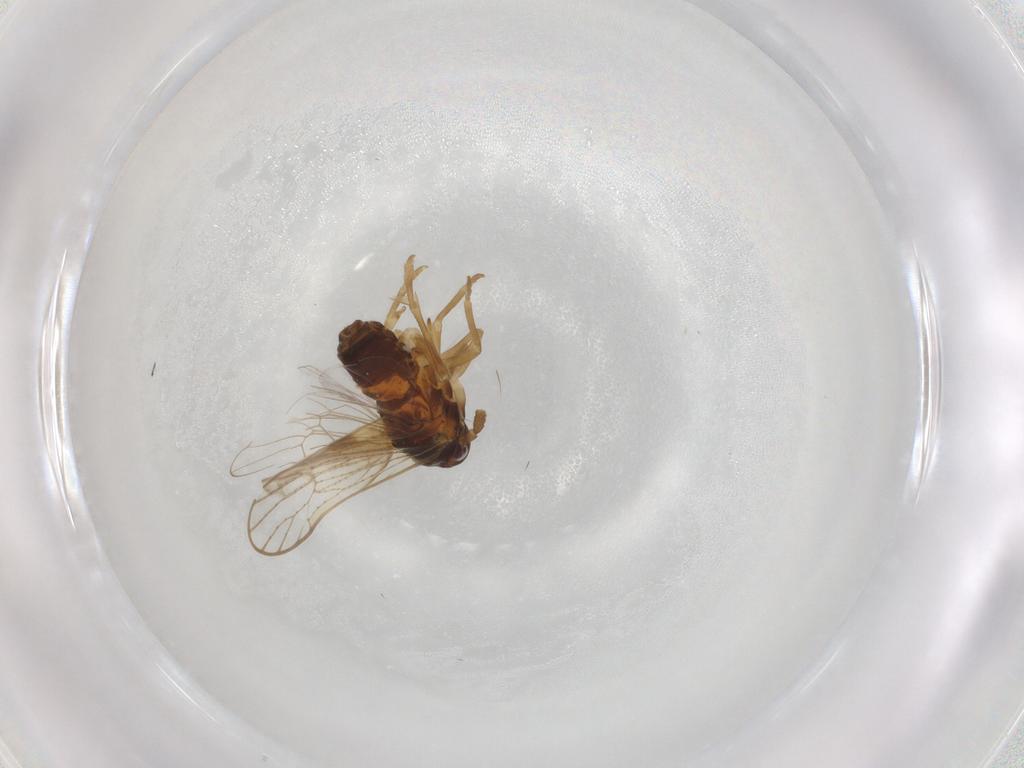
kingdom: Animalia
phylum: Arthropoda
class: Insecta
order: Hemiptera
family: Delphacidae
